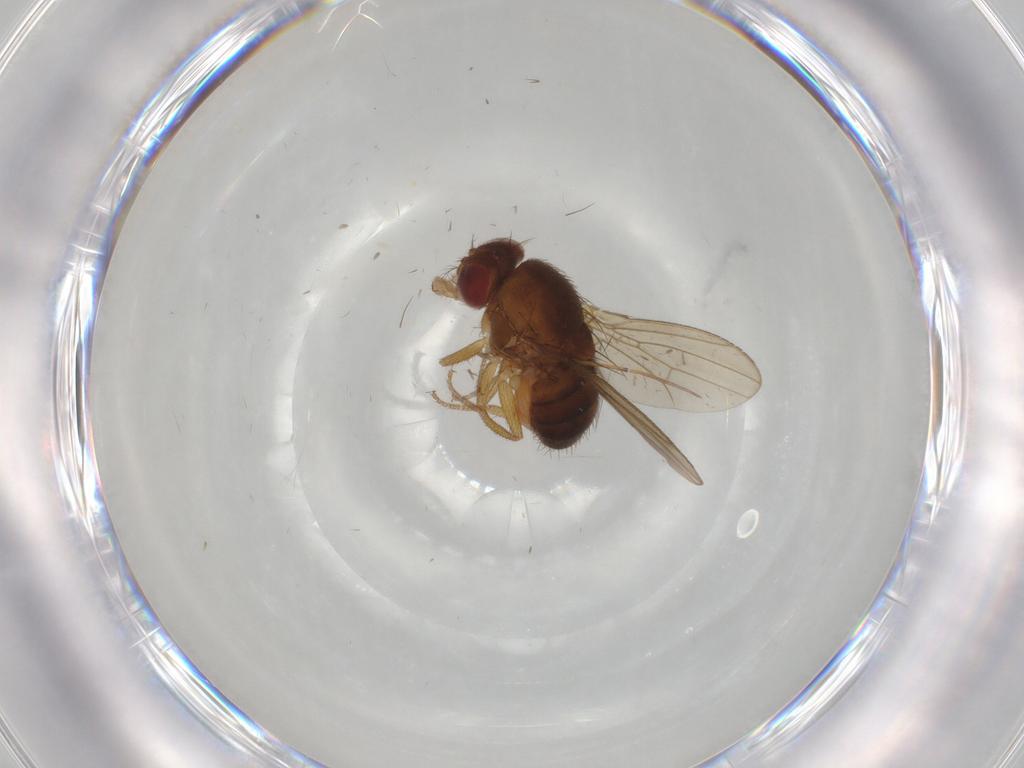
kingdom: Animalia
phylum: Arthropoda
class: Insecta
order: Diptera
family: Drosophilidae
